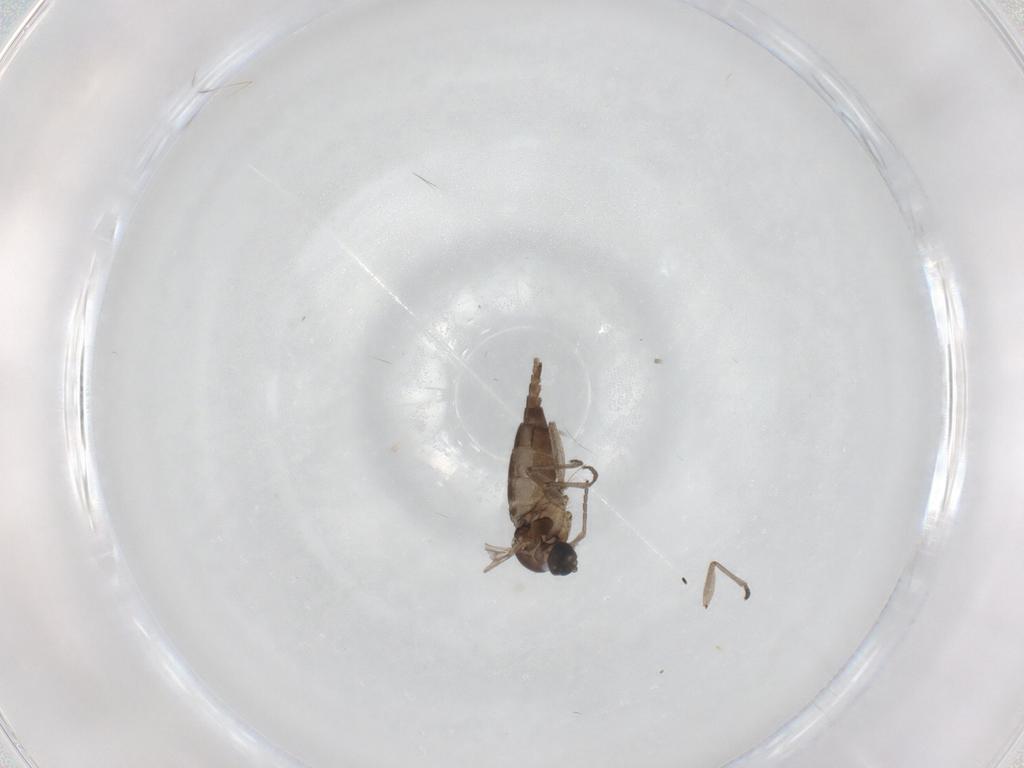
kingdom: Animalia
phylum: Arthropoda
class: Insecta
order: Diptera
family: Sciaridae
